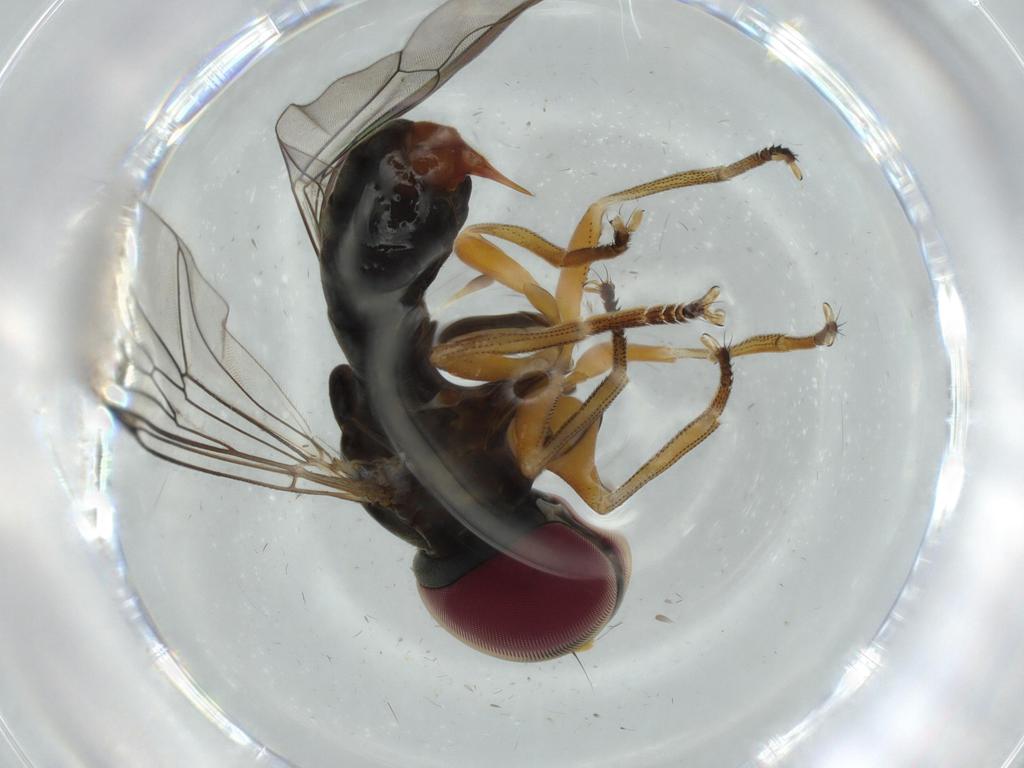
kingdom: Animalia
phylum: Arthropoda
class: Insecta
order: Diptera
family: Pipunculidae
